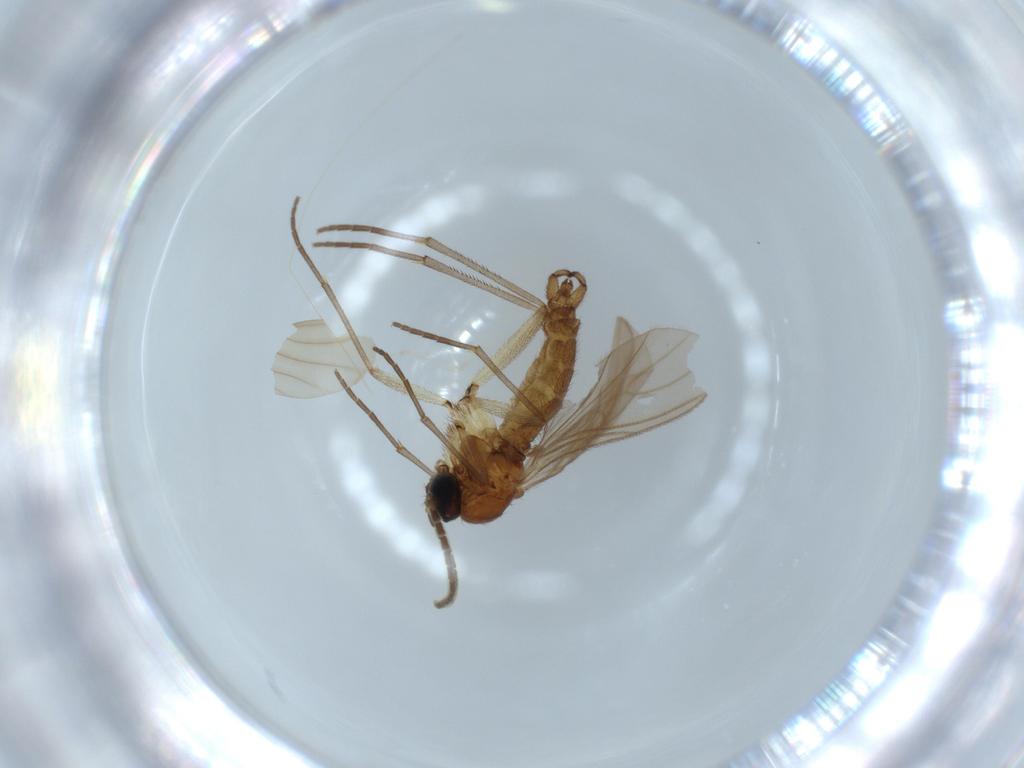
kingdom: Animalia
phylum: Arthropoda
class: Insecta
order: Diptera
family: Sciaridae
